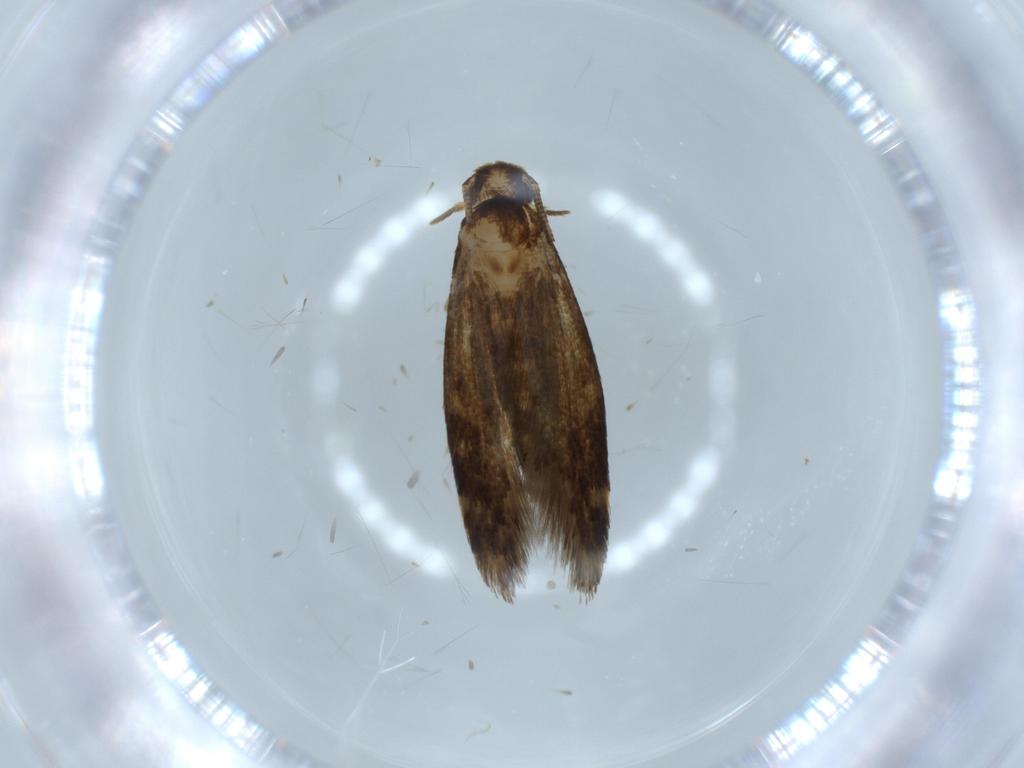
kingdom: Animalia
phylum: Arthropoda
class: Insecta
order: Lepidoptera
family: Tineidae
